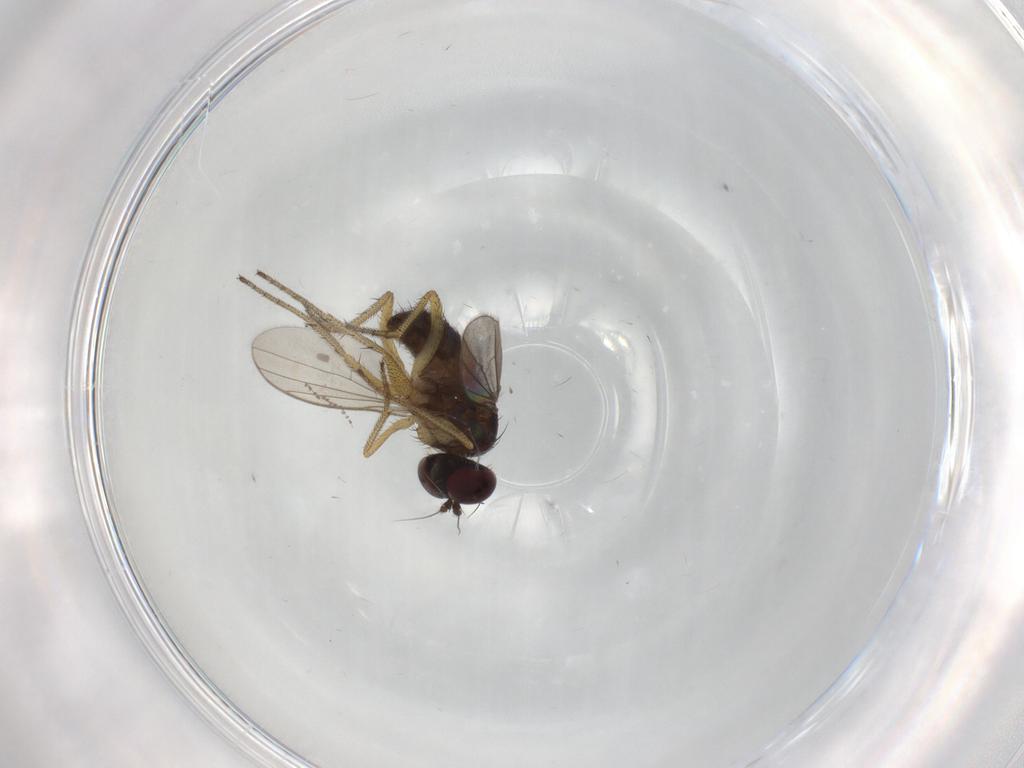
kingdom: Animalia
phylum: Arthropoda
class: Insecta
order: Diptera
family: Cecidomyiidae
